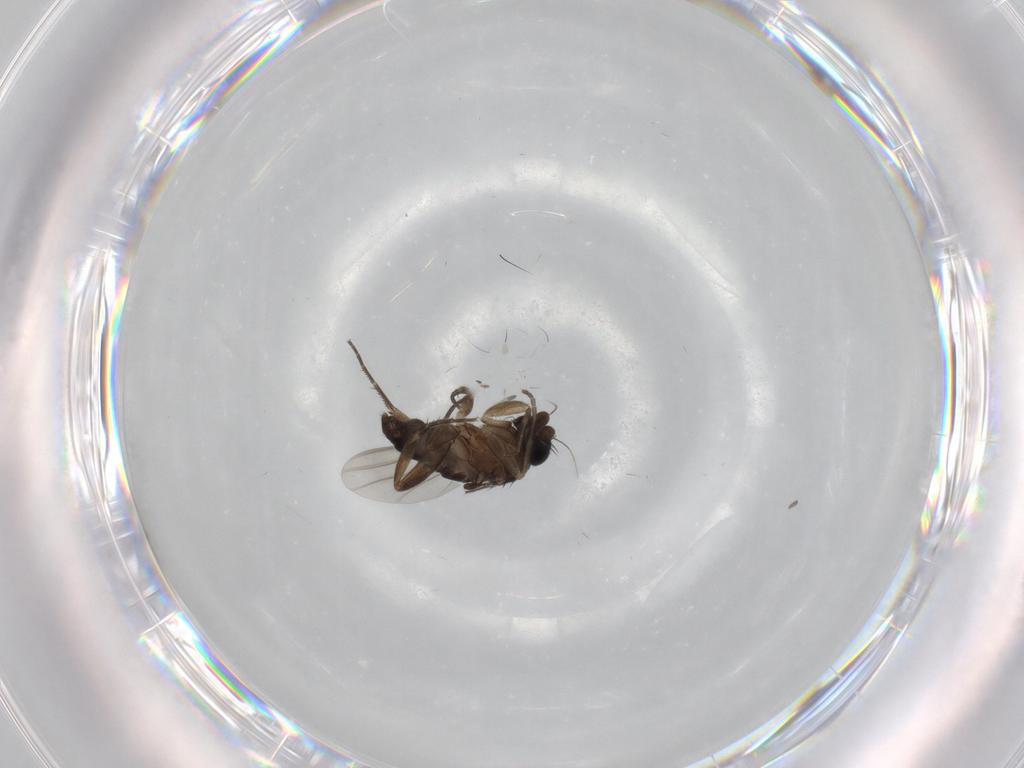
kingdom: Animalia
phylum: Arthropoda
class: Insecta
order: Diptera
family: Phoridae
